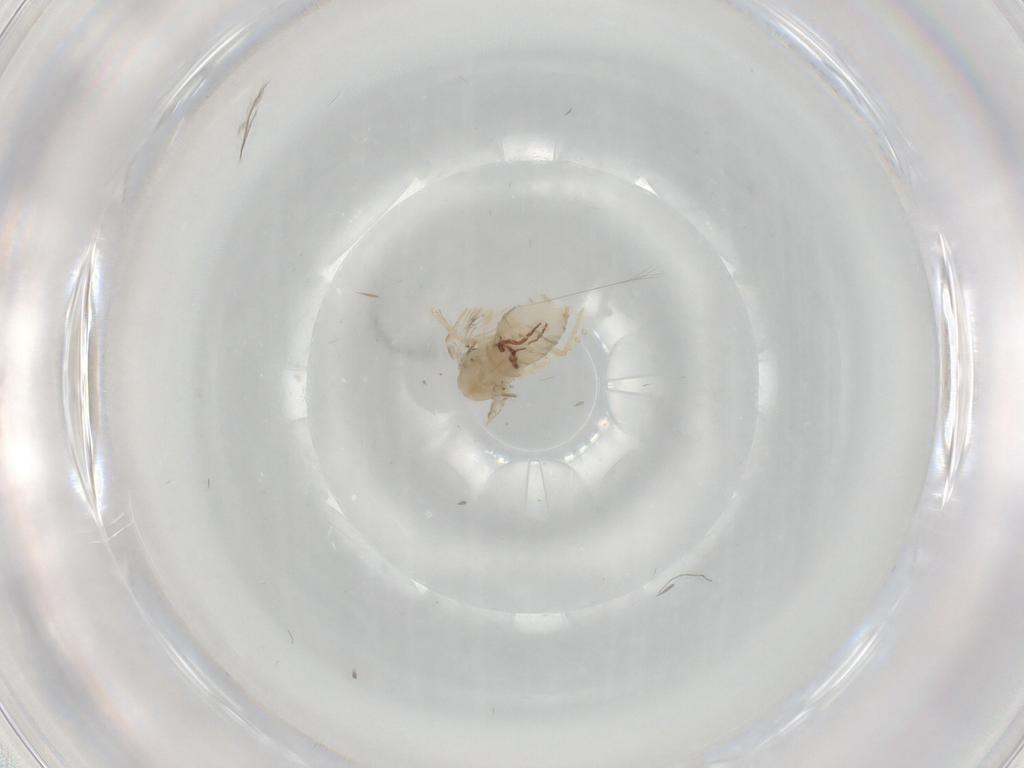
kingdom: Animalia
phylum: Arthropoda
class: Insecta
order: Diptera
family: Psychodidae
